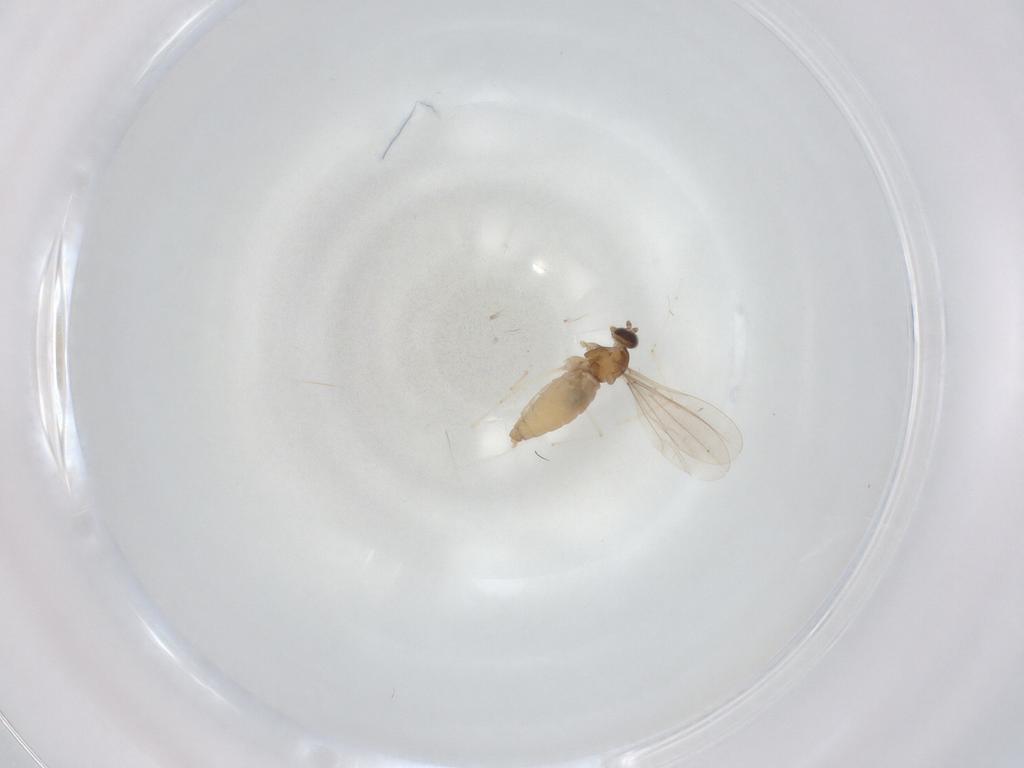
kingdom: Animalia
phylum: Arthropoda
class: Insecta
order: Diptera
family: Cecidomyiidae
